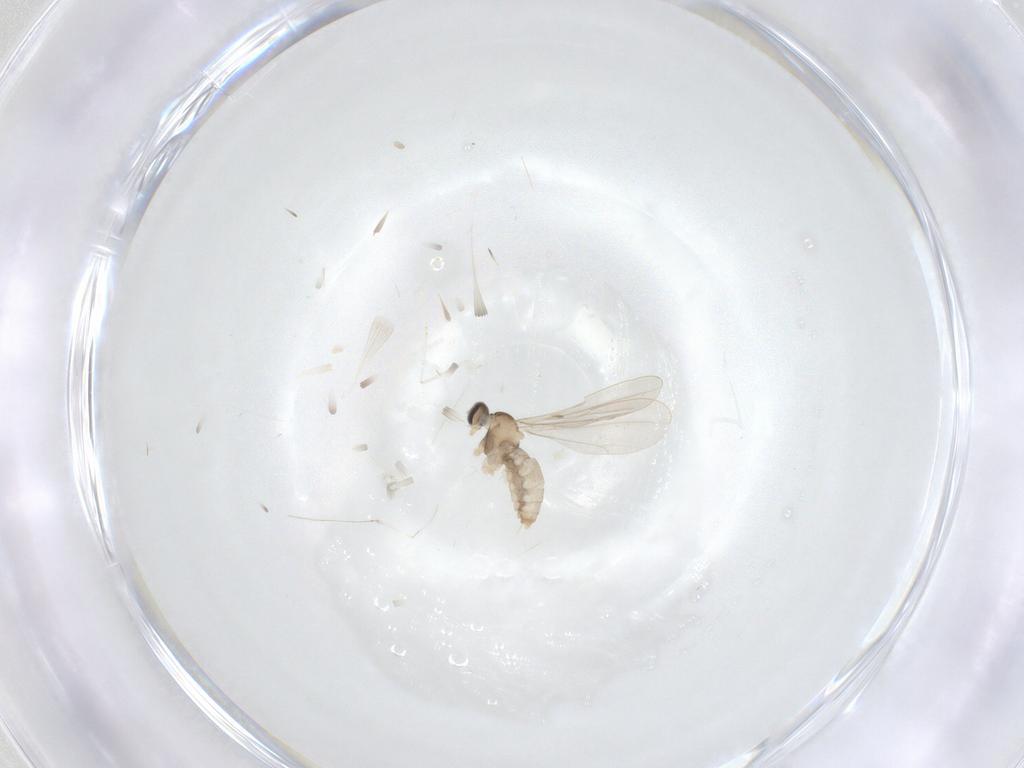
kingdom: Animalia
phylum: Arthropoda
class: Insecta
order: Diptera
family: Cecidomyiidae
